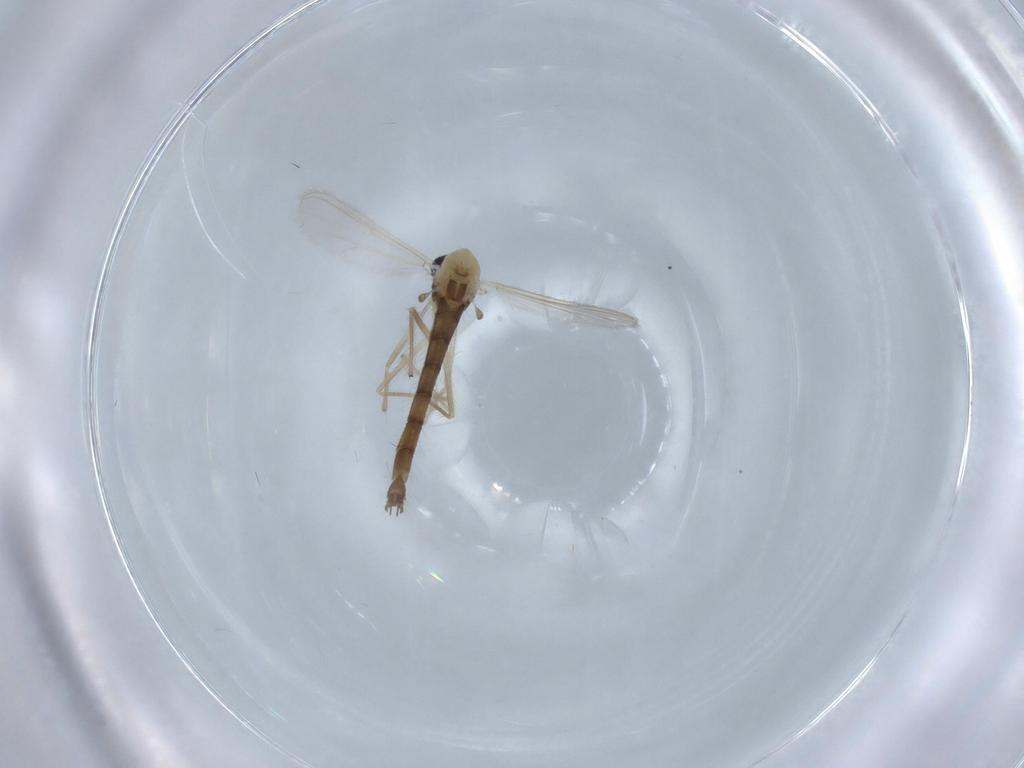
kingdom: Animalia
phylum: Arthropoda
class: Insecta
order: Diptera
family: Chironomidae
